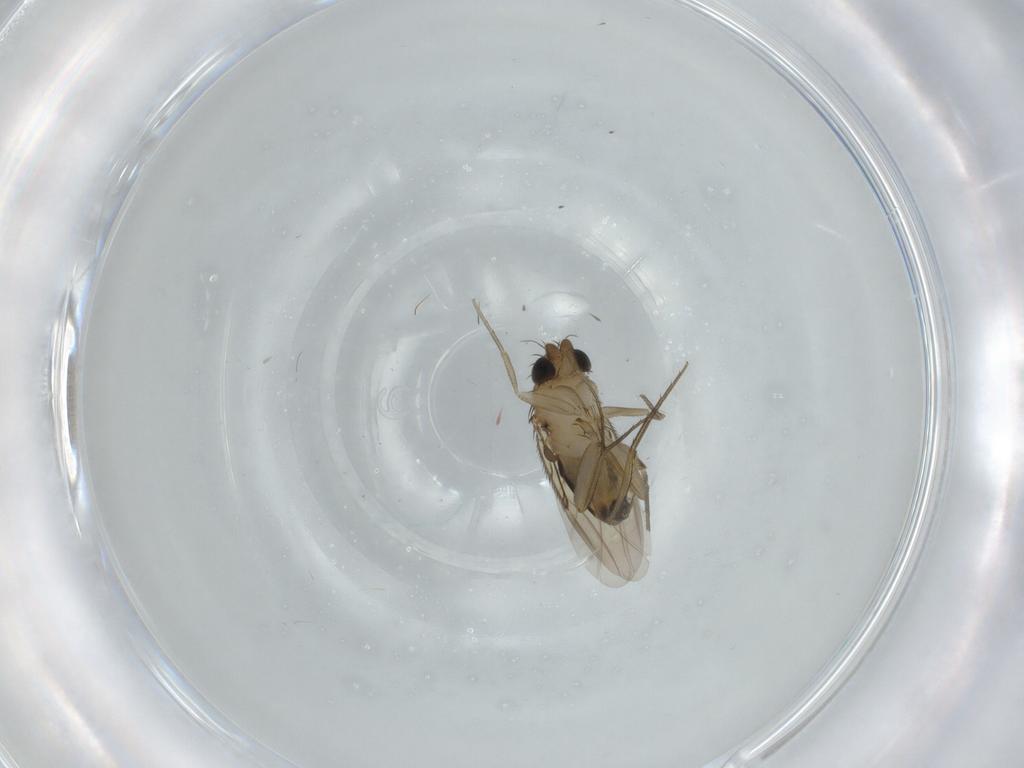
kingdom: Animalia
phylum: Arthropoda
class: Insecta
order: Diptera
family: Phoridae
